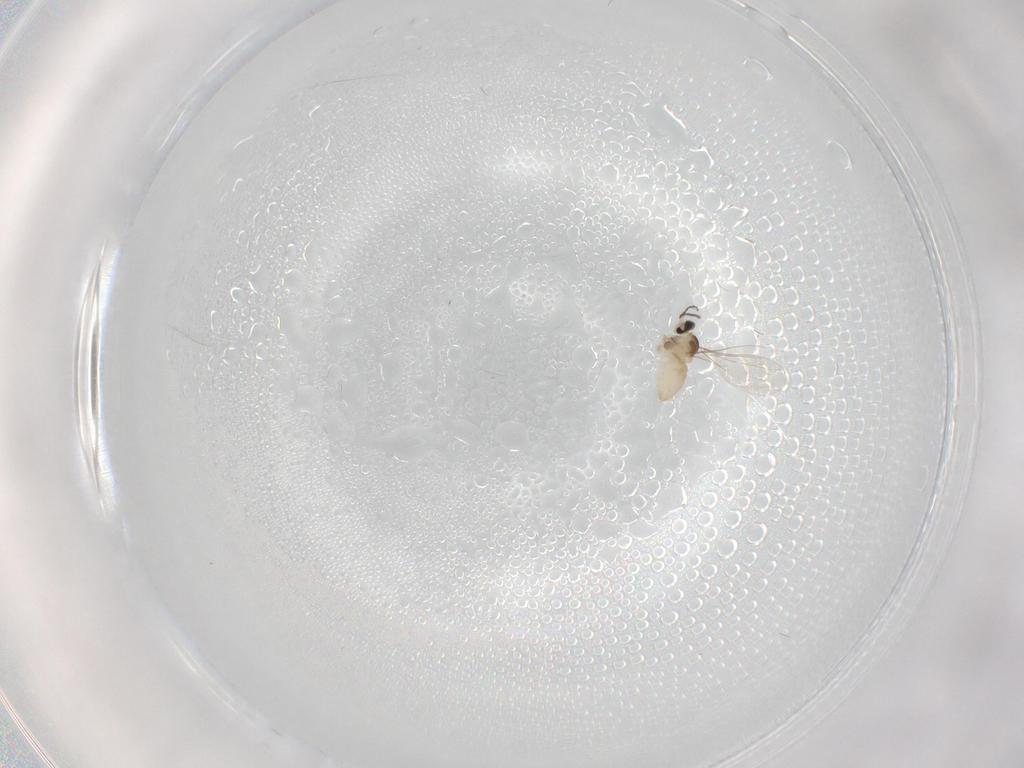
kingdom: Animalia
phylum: Arthropoda
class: Insecta
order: Diptera
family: Cecidomyiidae
